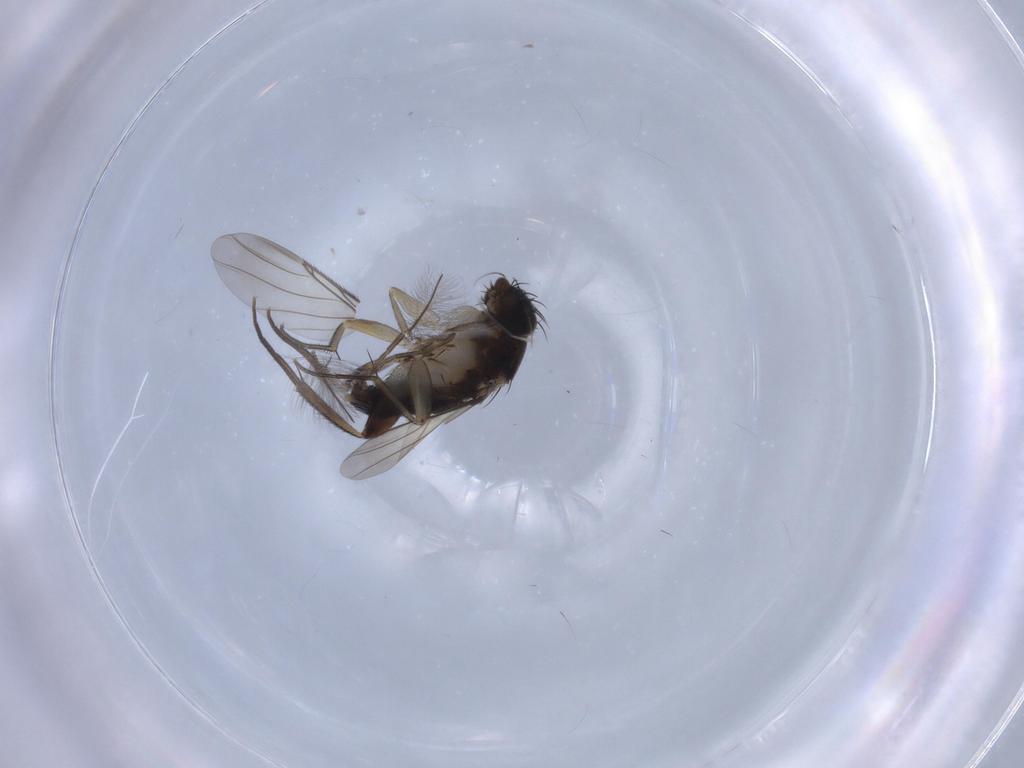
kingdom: Animalia
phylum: Arthropoda
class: Insecta
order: Diptera
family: Phoridae
